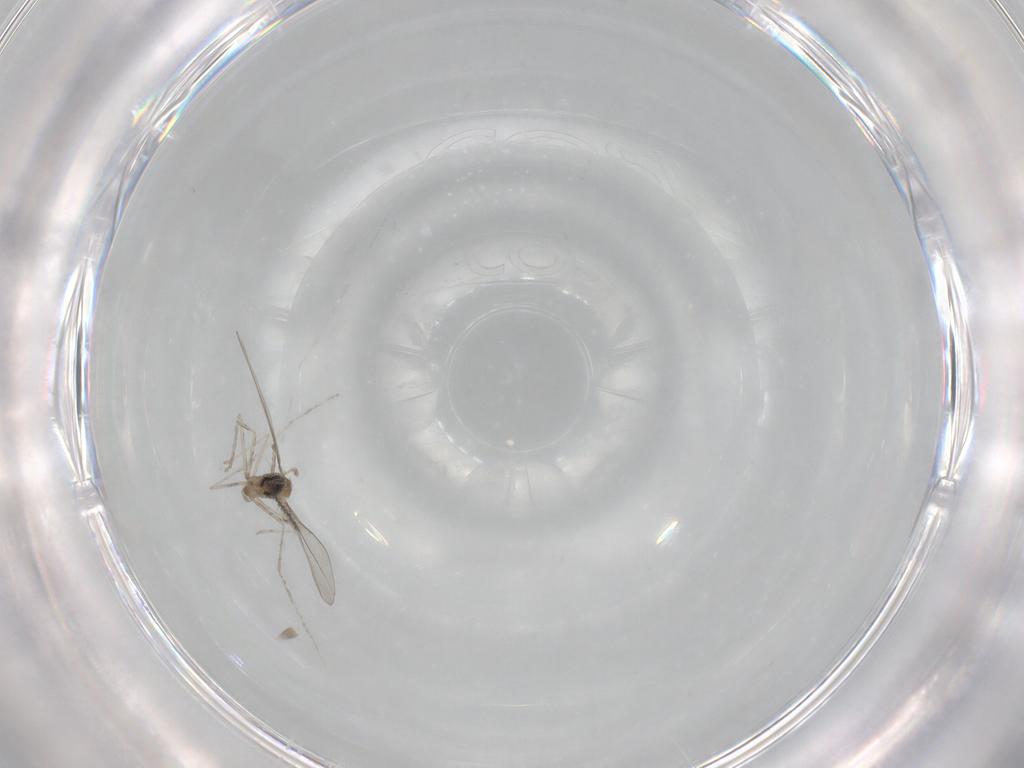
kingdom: Animalia
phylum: Arthropoda
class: Insecta
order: Diptera
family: Cecidomyiidae
